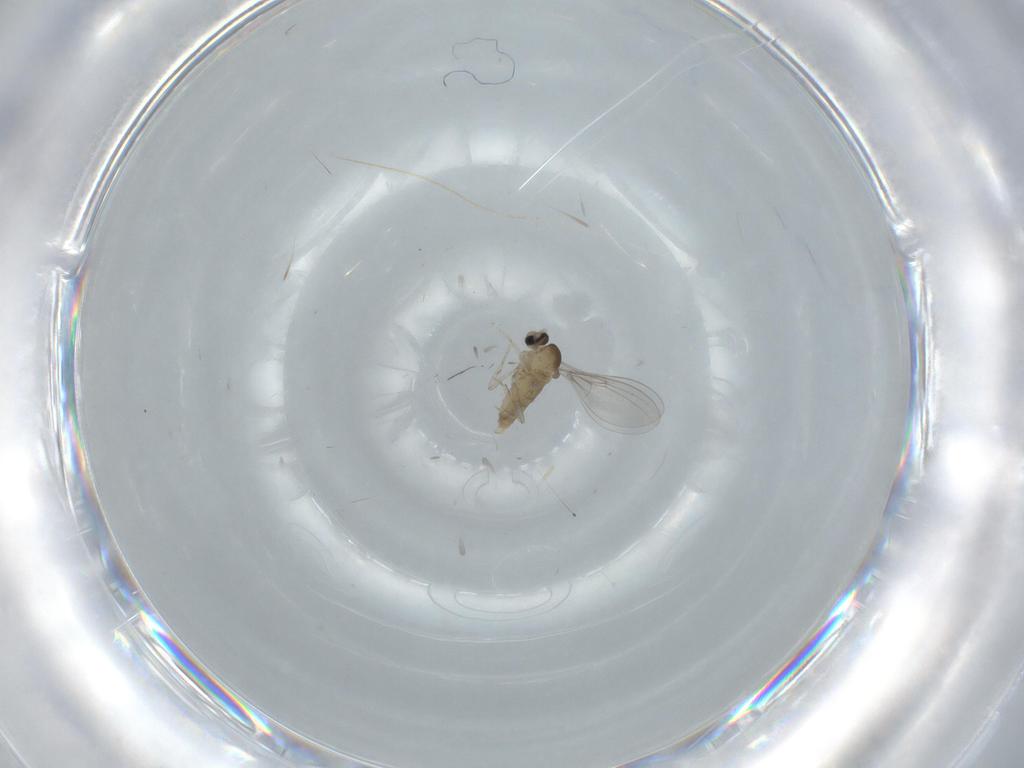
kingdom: Animalia
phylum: Arthropoda
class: Insecta
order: Diptera
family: Cecidomyiidae
